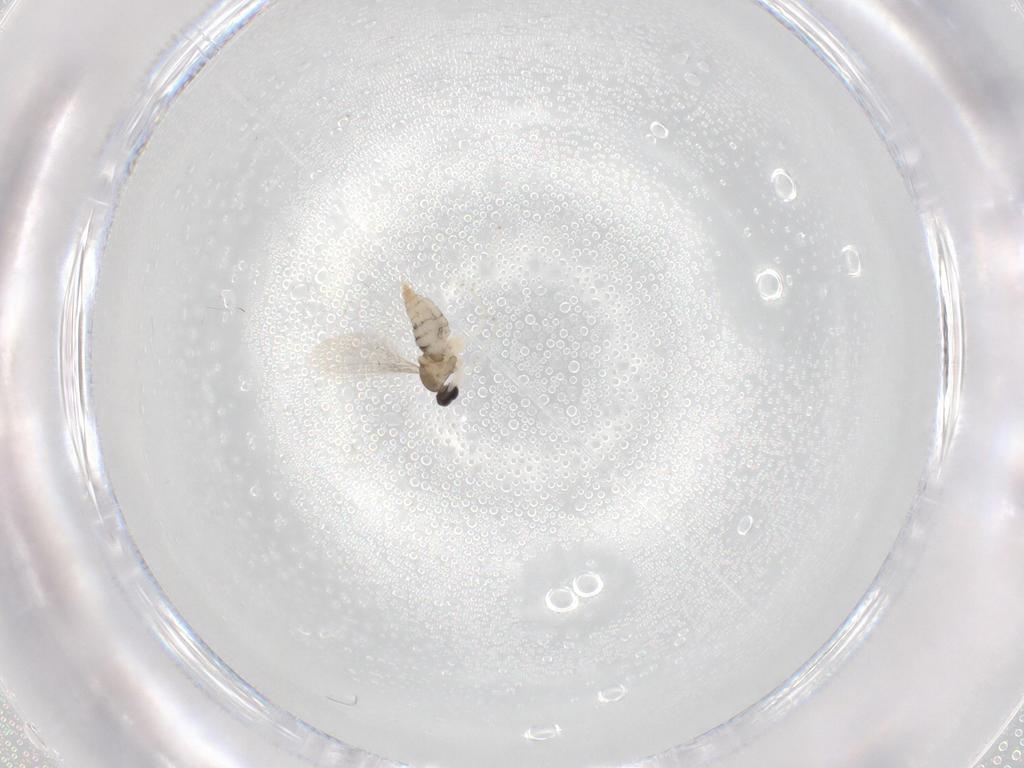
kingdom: Animalia
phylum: Arthropoda
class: Insecta
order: Diptera
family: Cecidomyiidae
